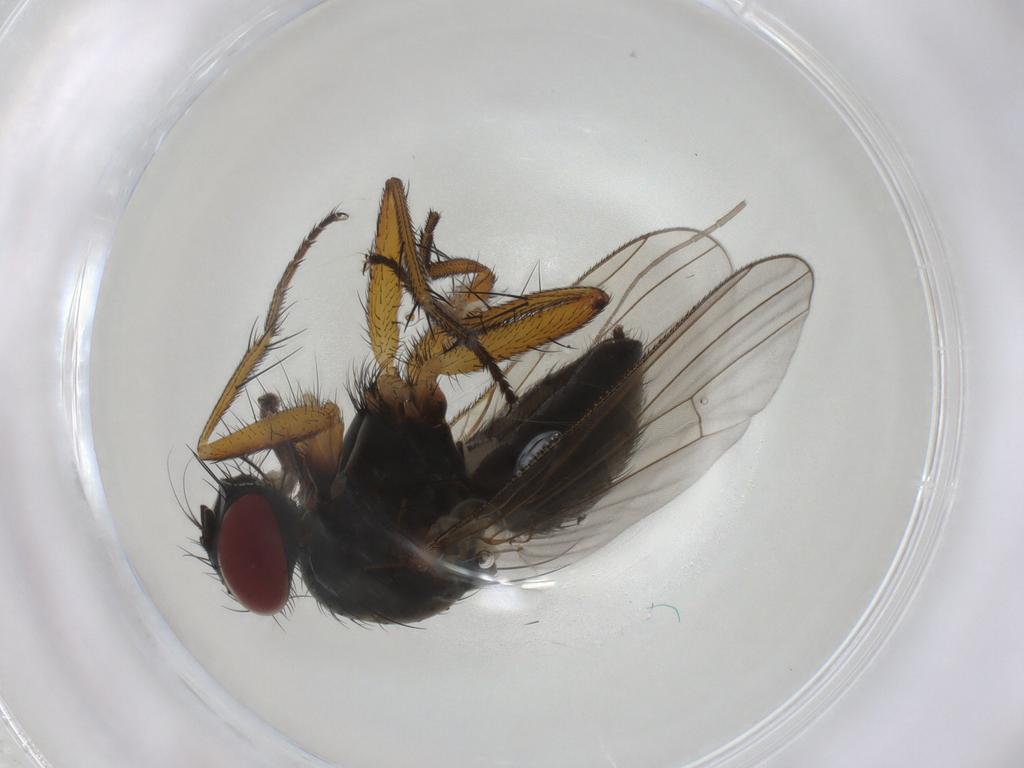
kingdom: Animalia
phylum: Arthropoda
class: Insecta
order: Diptera
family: Muscidae
